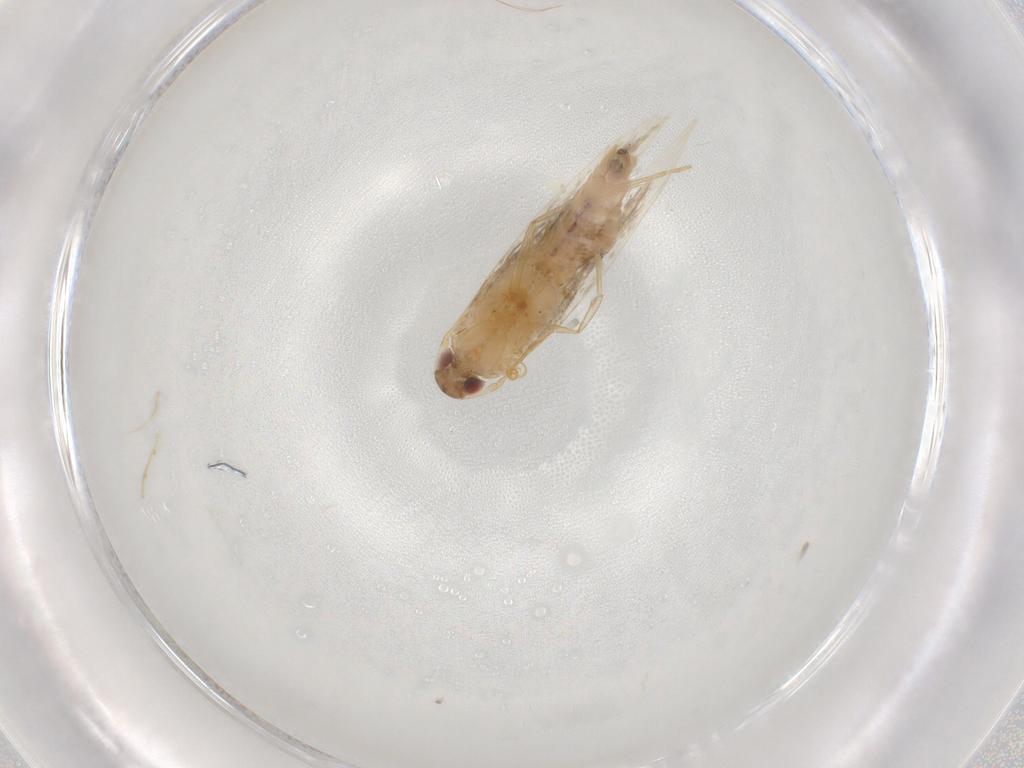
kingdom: Animalia
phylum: Arthropoda
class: Insecta
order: Lepidoptera
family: Cosmopterigidae
